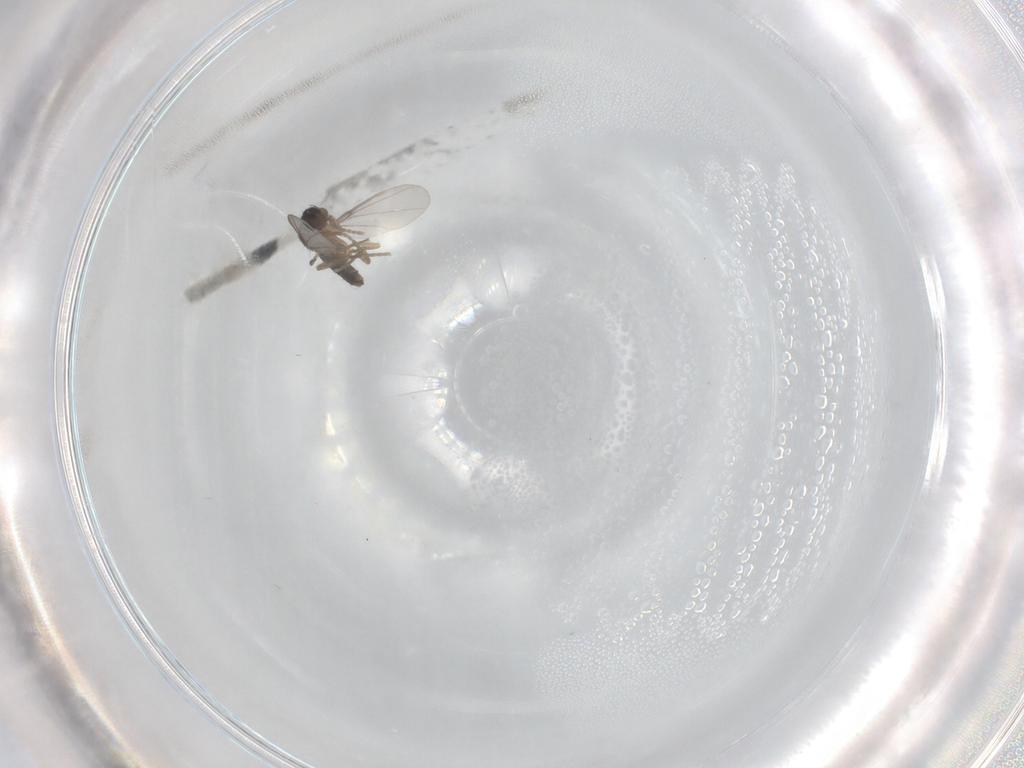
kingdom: Animalia
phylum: Arthropoda
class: Insecta
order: Diptera
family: Phoridae
